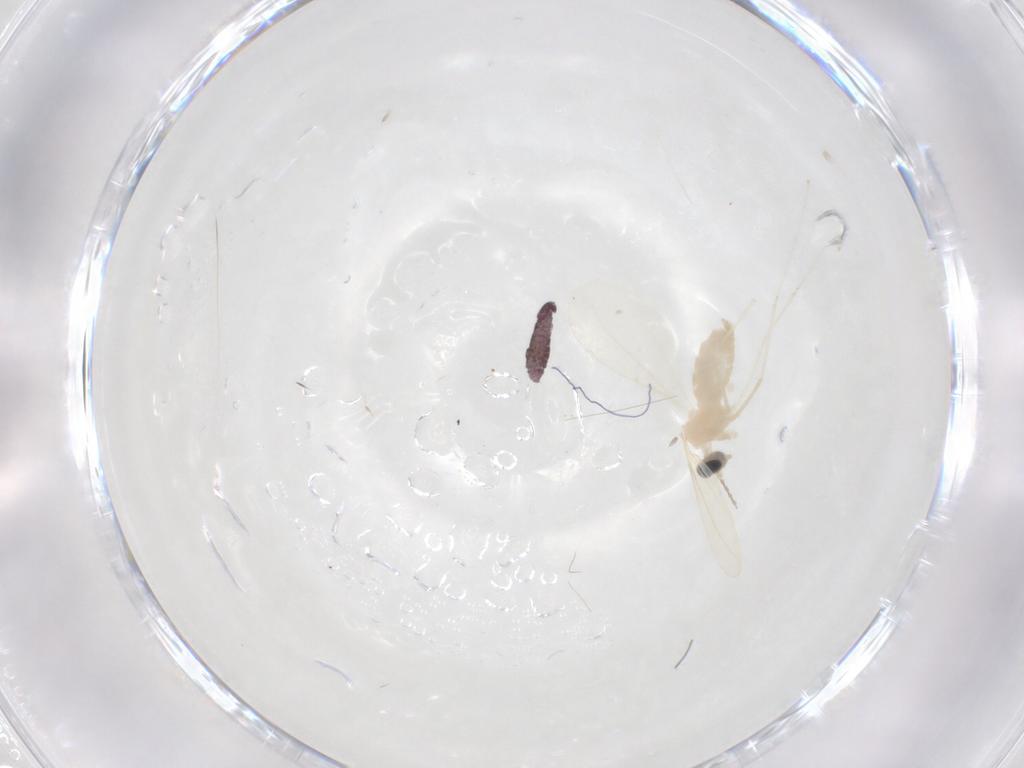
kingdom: Animalia
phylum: Arthropoda
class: Insecta
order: Diptera
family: Cecidomyiidae
